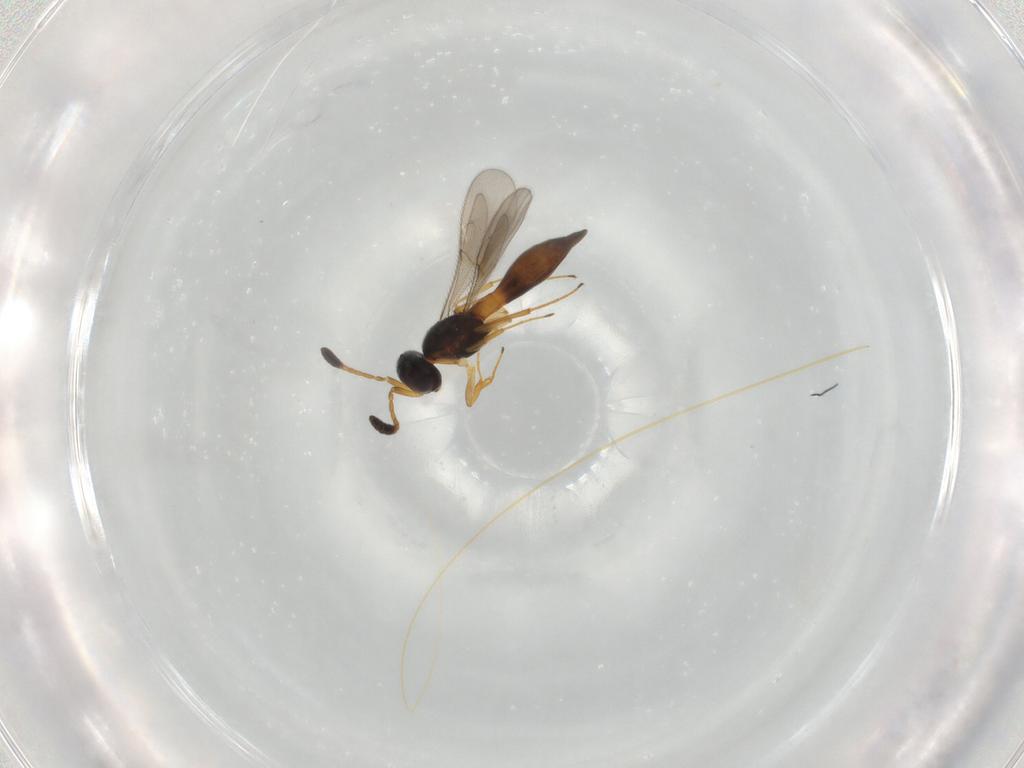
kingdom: Animalia
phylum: Arthropoda
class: Insecta
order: Hymenoptera
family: Scelionidae
